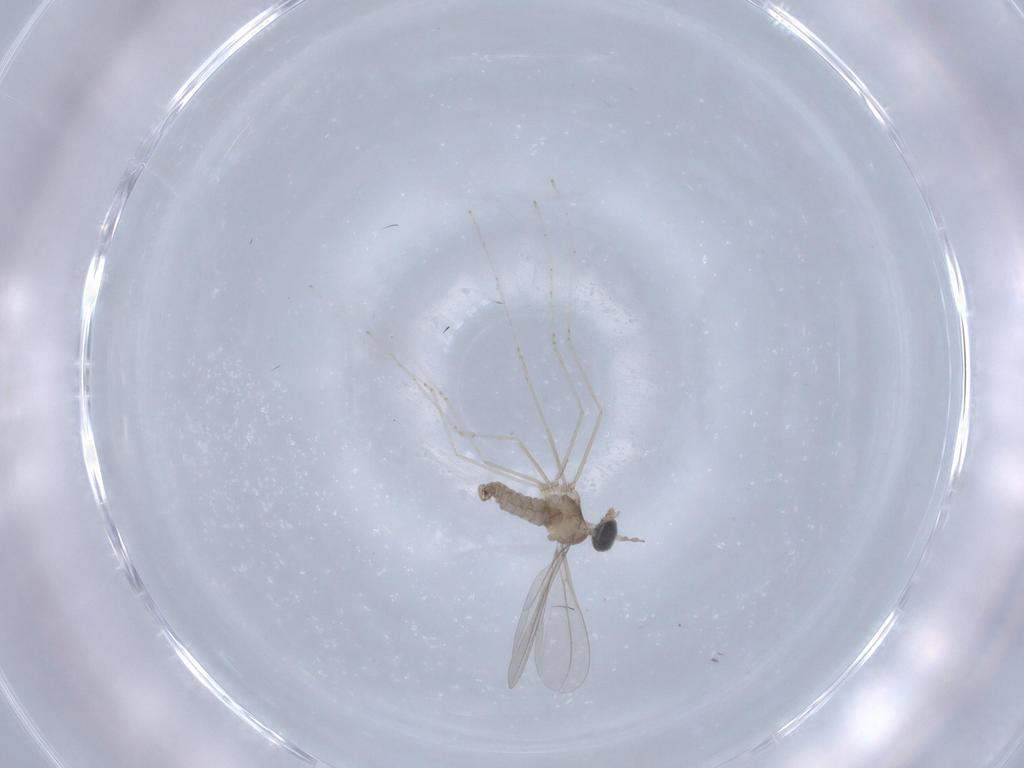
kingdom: Animalia
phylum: Arthropoda
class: Insecta
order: Diptera
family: Cecidomyiidae
